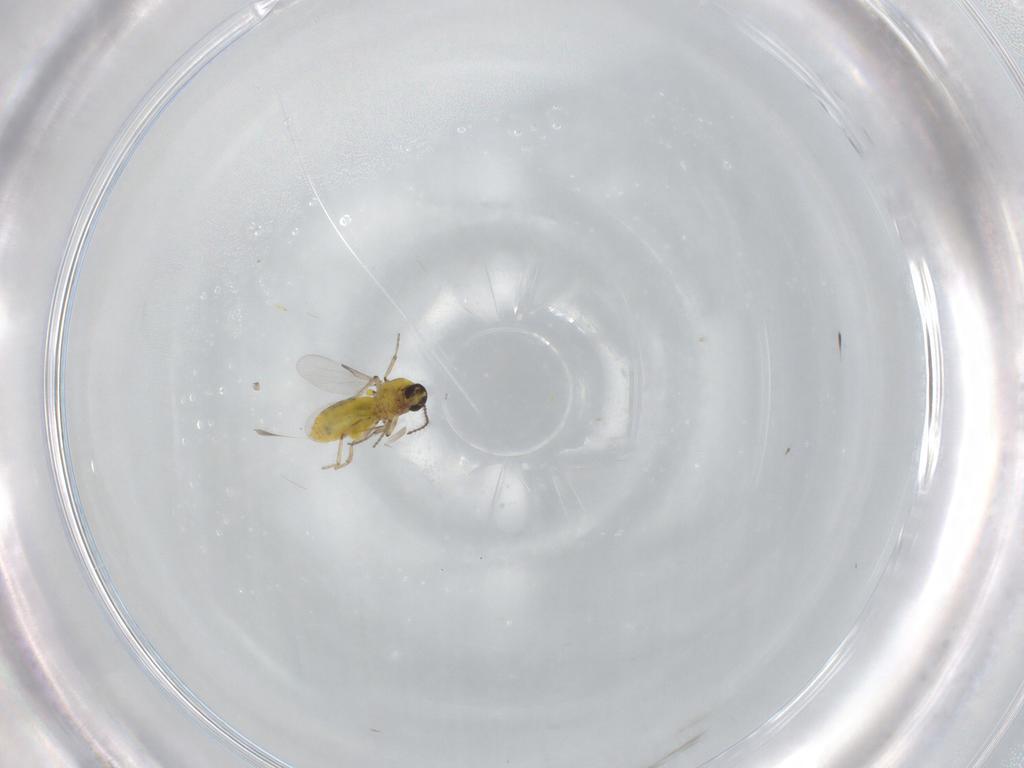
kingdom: Animalia
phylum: Arthropoda
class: Insecta
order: Diptera
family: Ceratopogonidae
